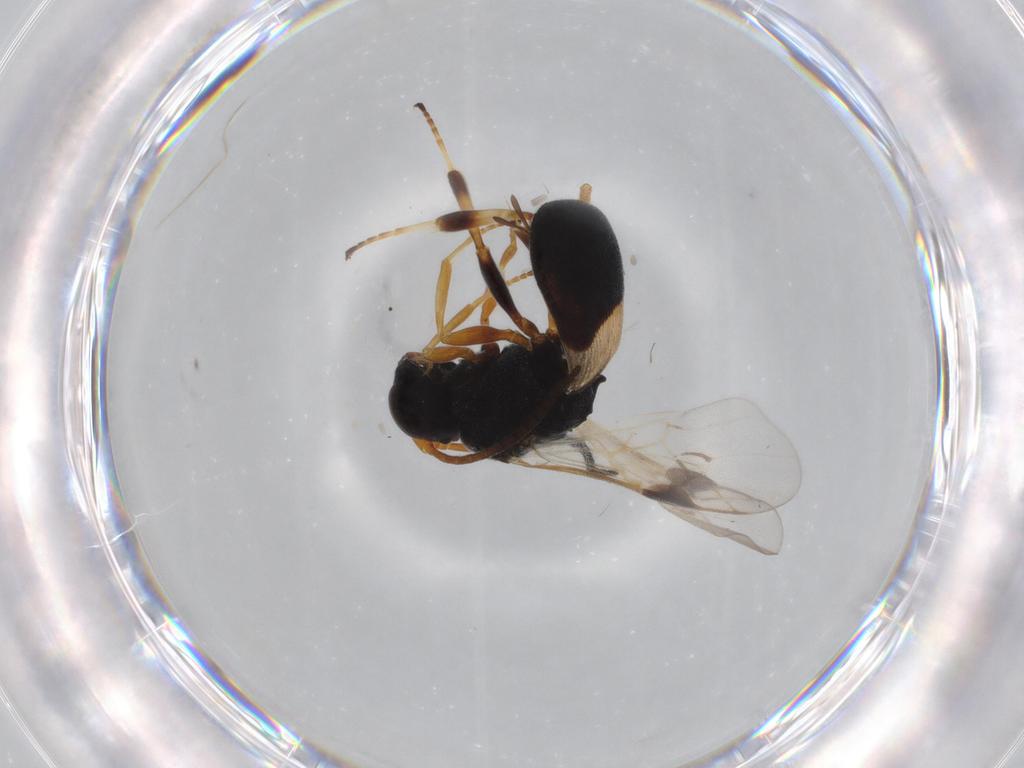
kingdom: Animalia
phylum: Arthropoda
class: Insecta
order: Hymenoptera
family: Braconidae
